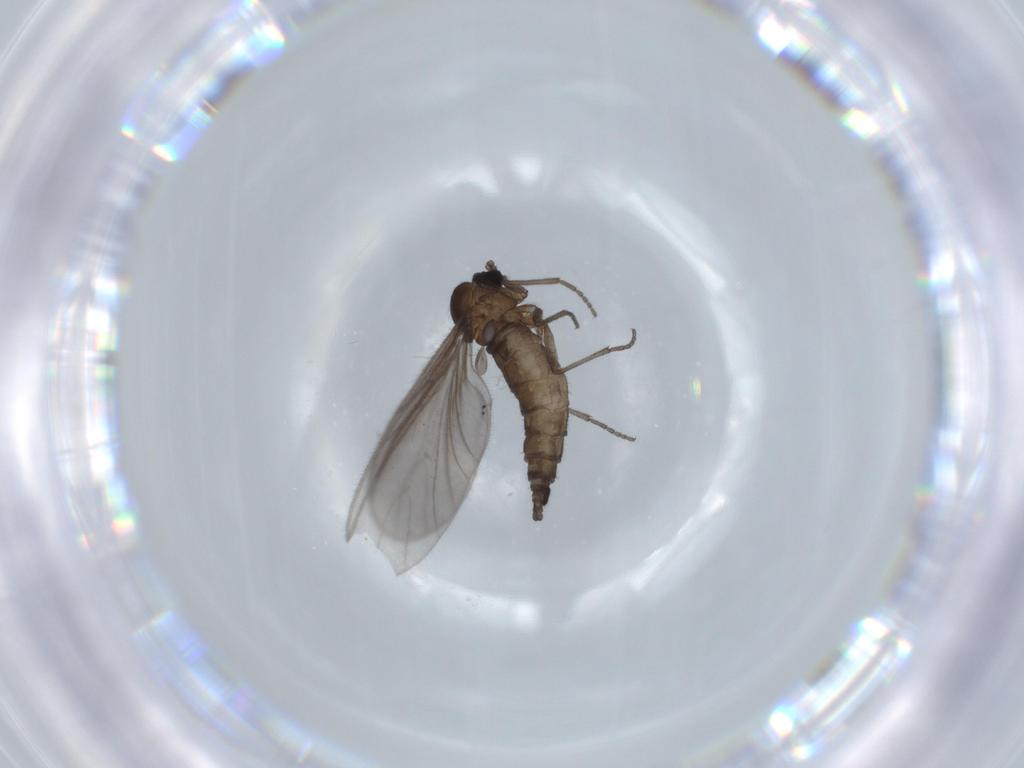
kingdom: Animalia
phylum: Arthropoda
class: Insecta
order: Diptera
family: Sciaridae
